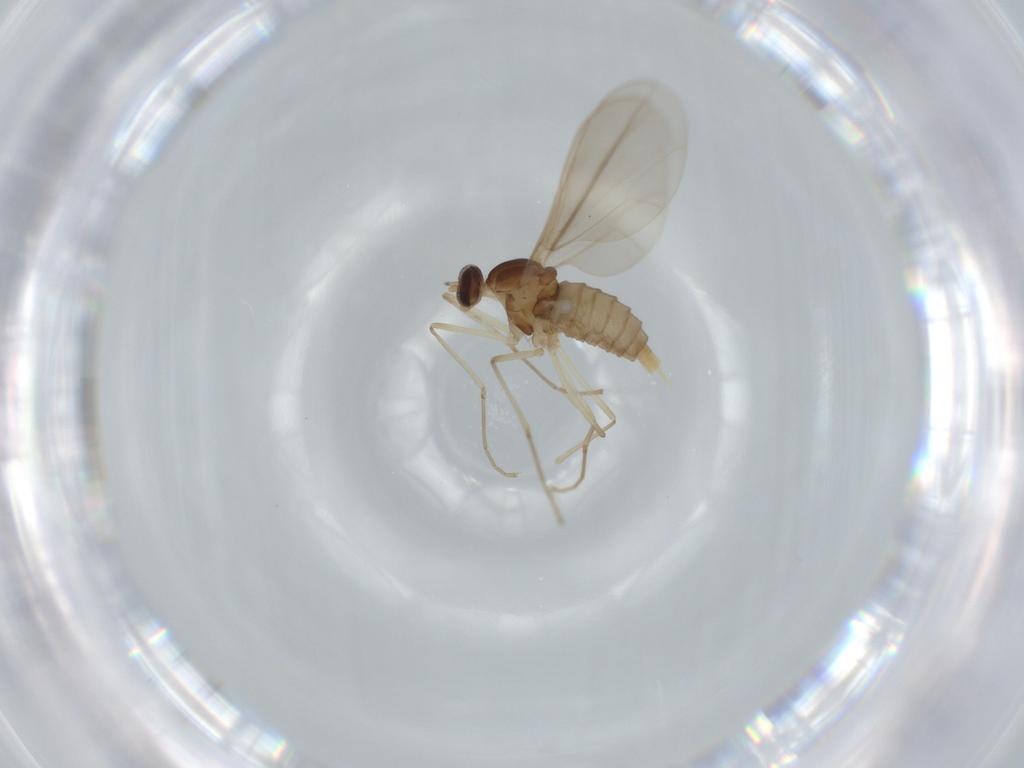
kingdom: Animalia
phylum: Arthropoda
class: Insecta
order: Diptera
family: Cecidomyiidae
